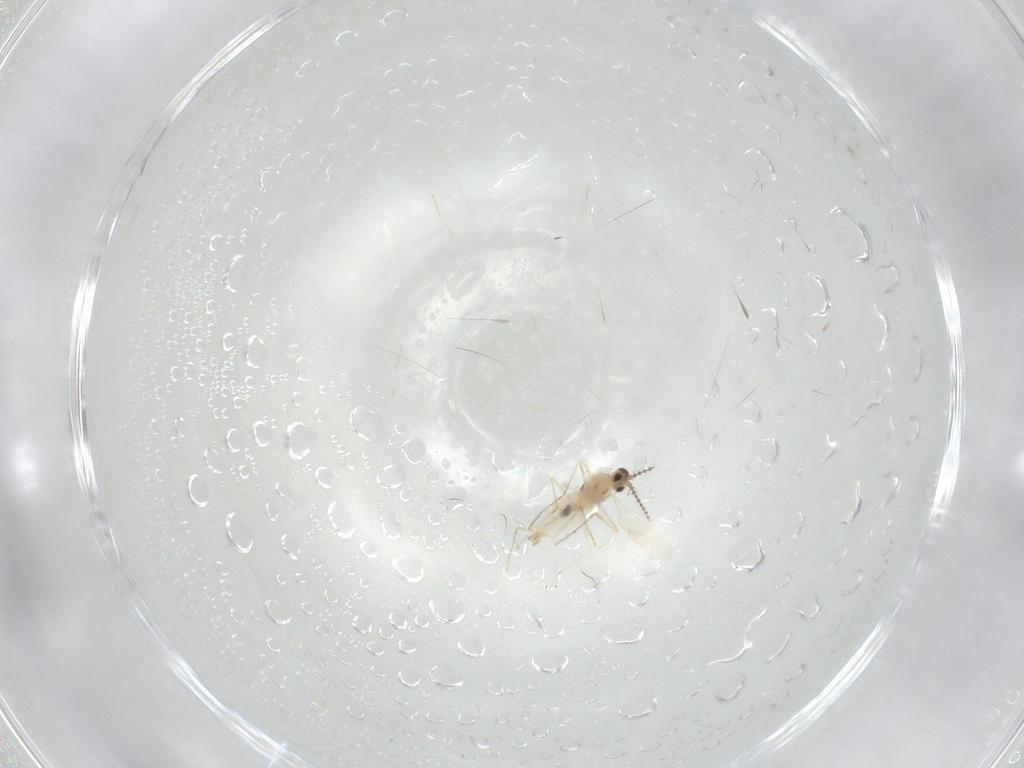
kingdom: Animalia
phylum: Arthropoda
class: Insecta
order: Diptera
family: Cecidomyiidae
